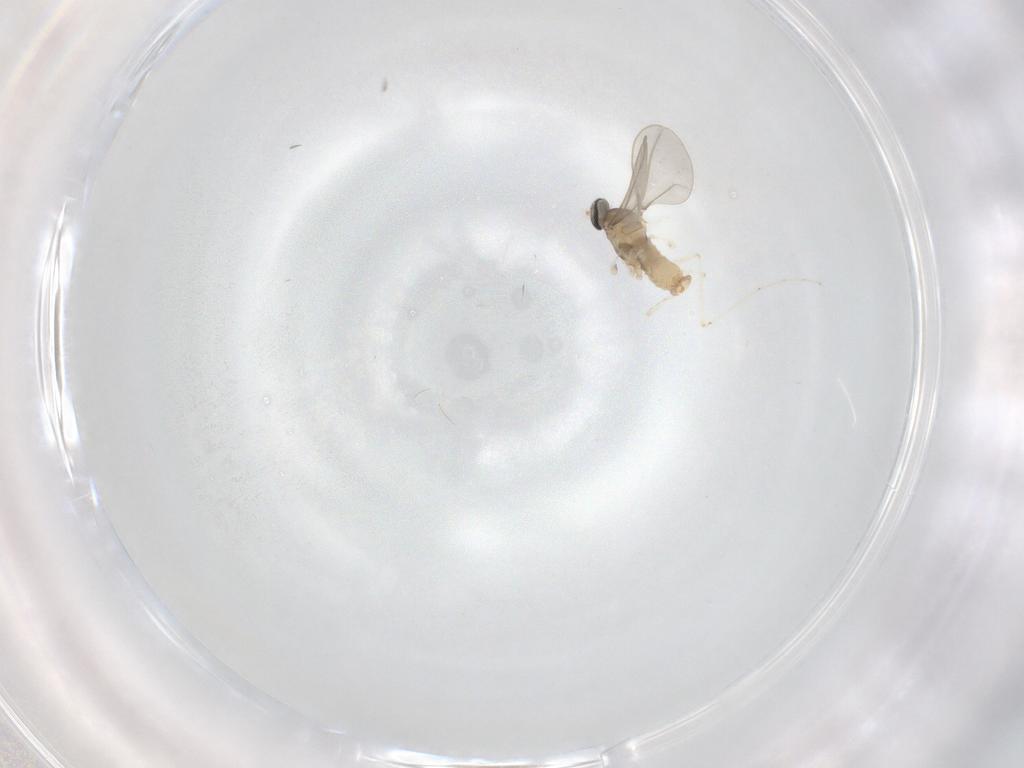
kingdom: Animalia
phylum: Arthropoda
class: Insecta
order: Diptera
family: Cecidomyiidae
